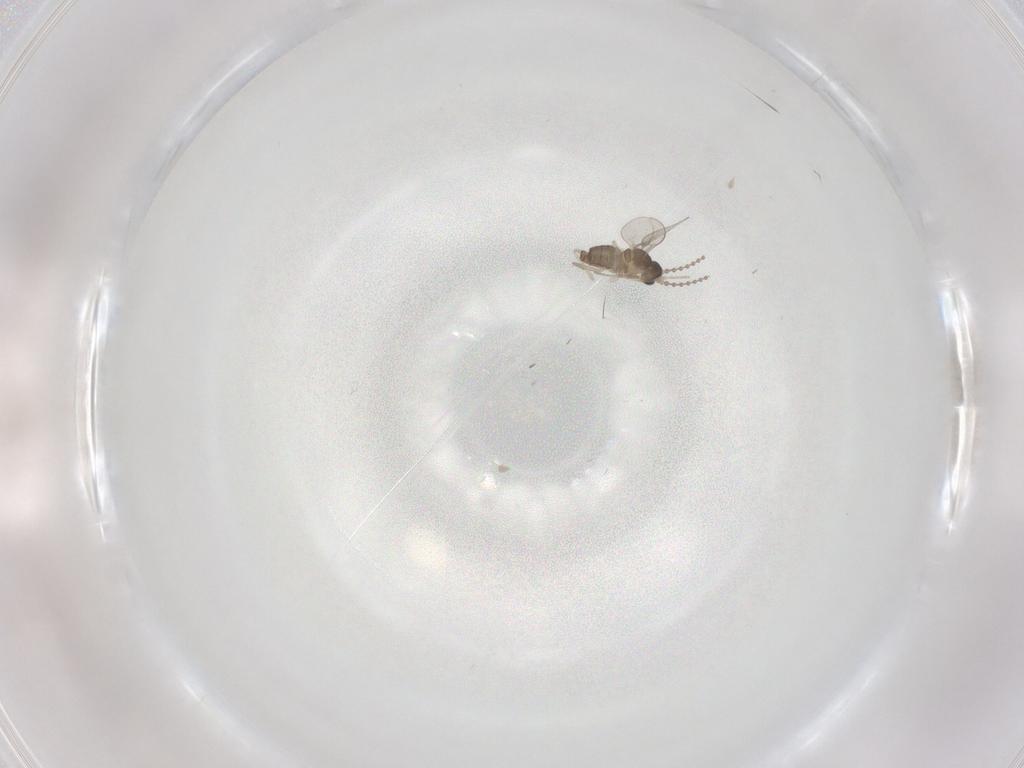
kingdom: Animalia
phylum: Arthropoda
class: Insecta
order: Diptera
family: Cecidomyiidae
